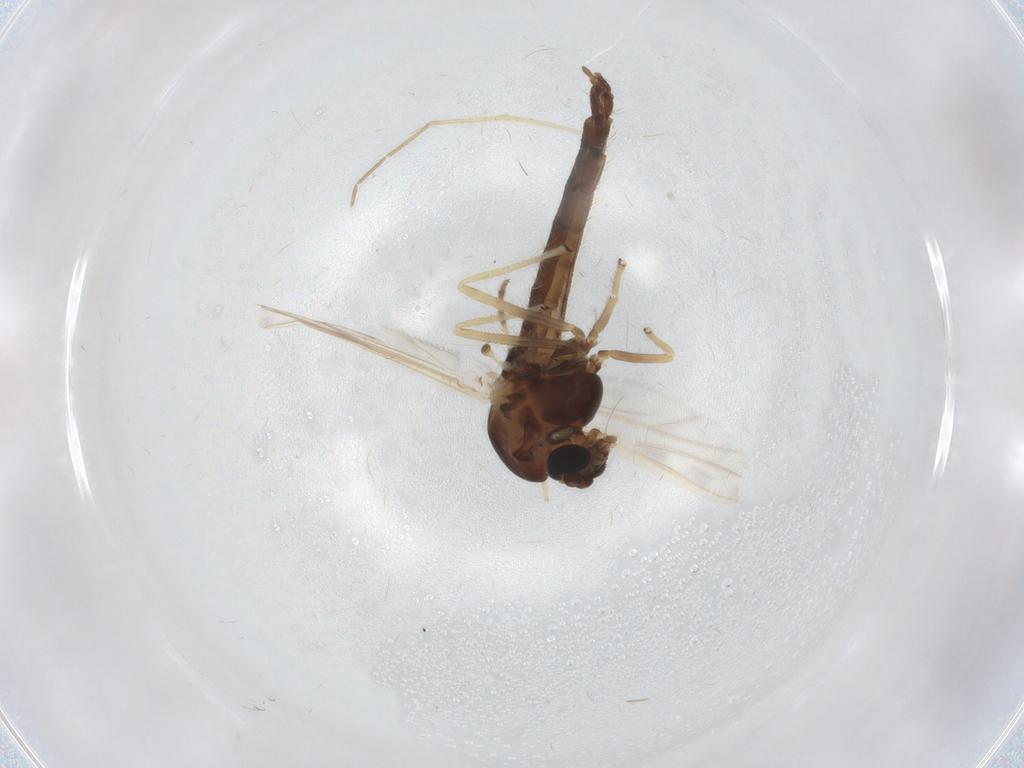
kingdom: Animalia
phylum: Arthropoda
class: Insecta
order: Diptera
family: Chironomidae
